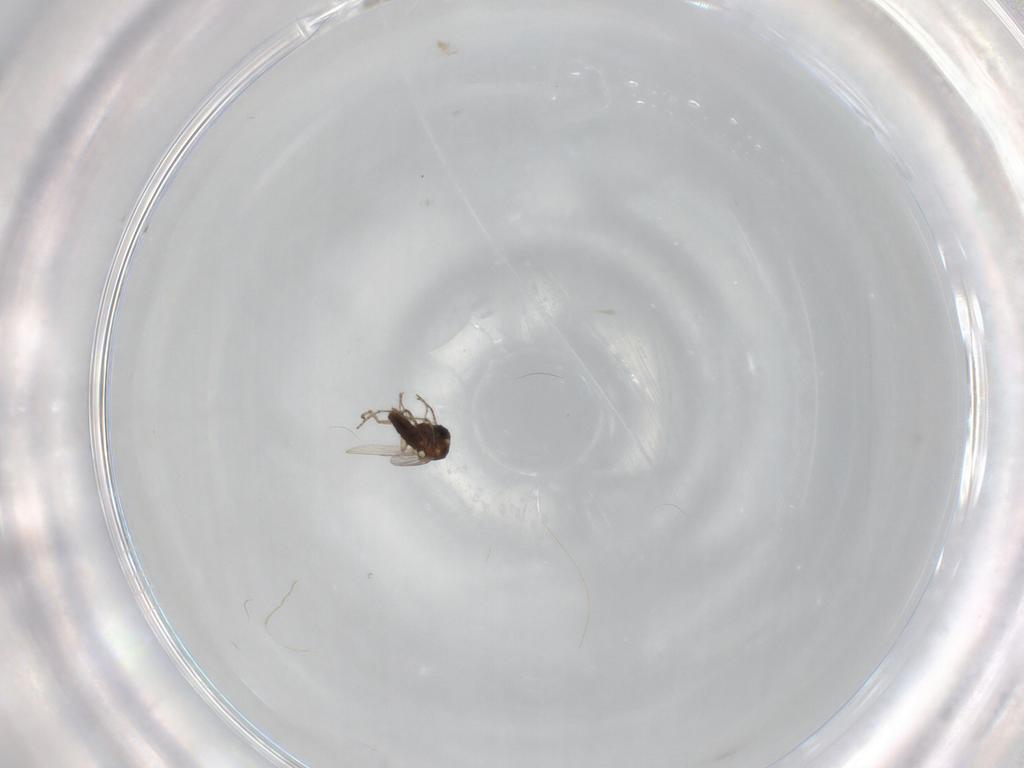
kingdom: Animalia
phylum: Arthropoda
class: Insecta
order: Diptera
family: Ceratopogonidae
